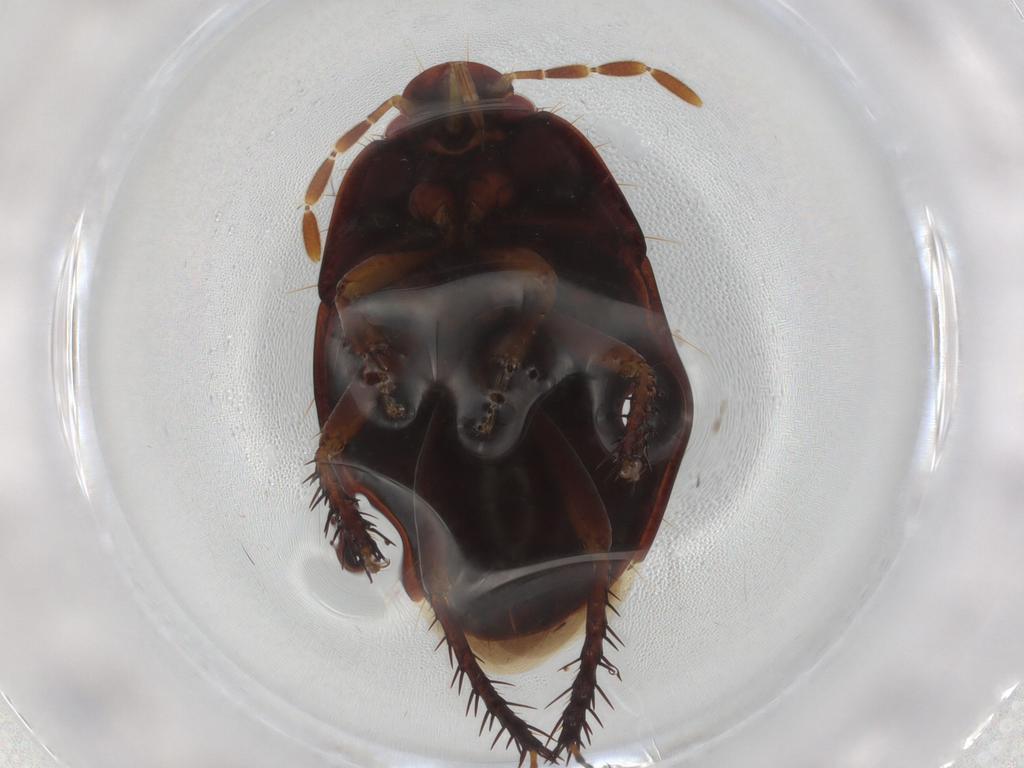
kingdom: Animalia
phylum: Arthropoda
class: Insecta
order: Hemiptera
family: Cydnidae
